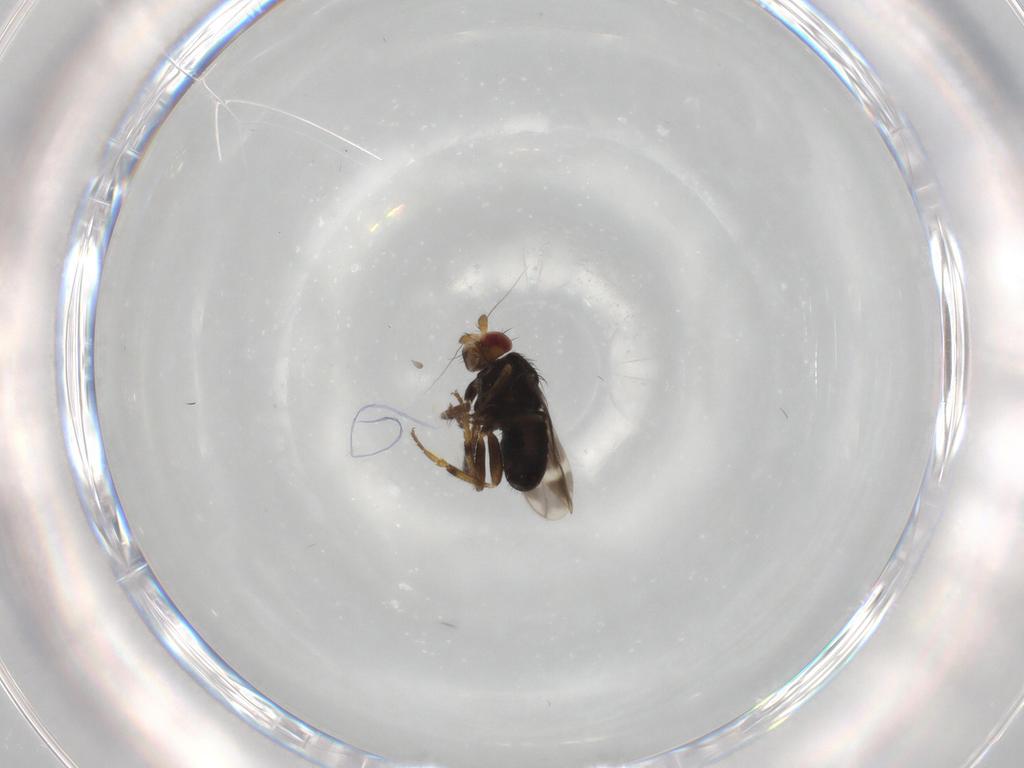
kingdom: Animalia
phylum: Arthropoda
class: Insecta
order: Diptera
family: Sphaeroceridae
